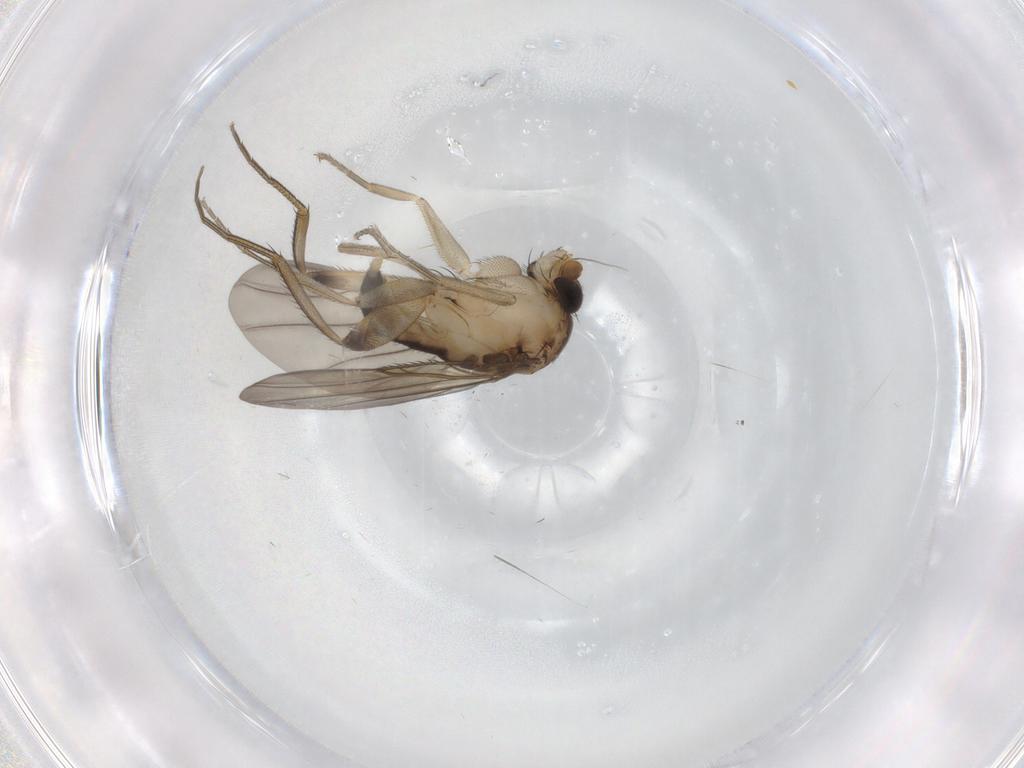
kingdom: Animalia
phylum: Arthropoda
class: Insecta
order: Diptera
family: Phoridae
